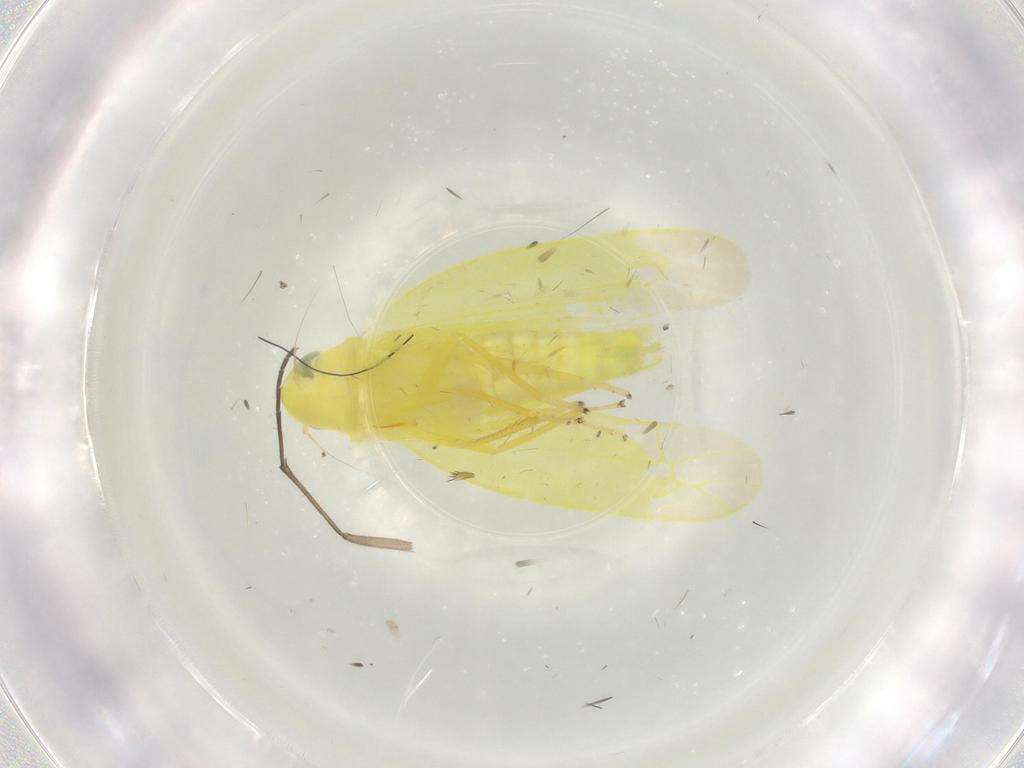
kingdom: Animalia
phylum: Arthropoda
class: Insecta
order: Hemiptera
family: Cicadellidae
